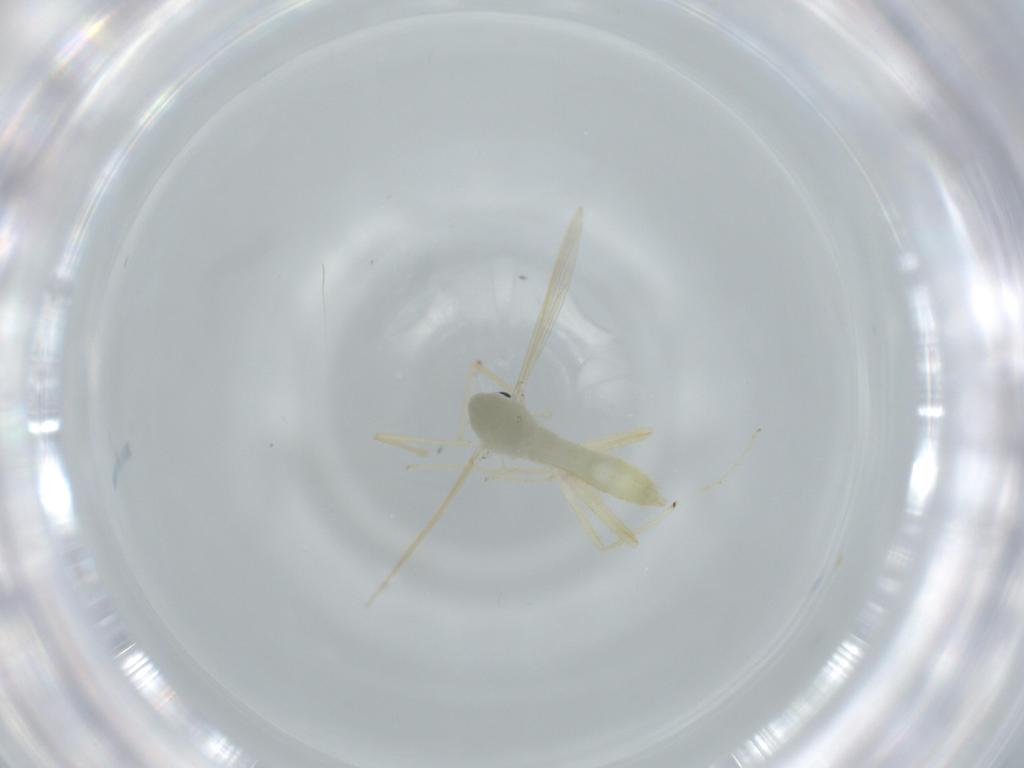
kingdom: Animalia
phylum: Arthropoda
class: Insecta
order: Diptera
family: Chironomidae
